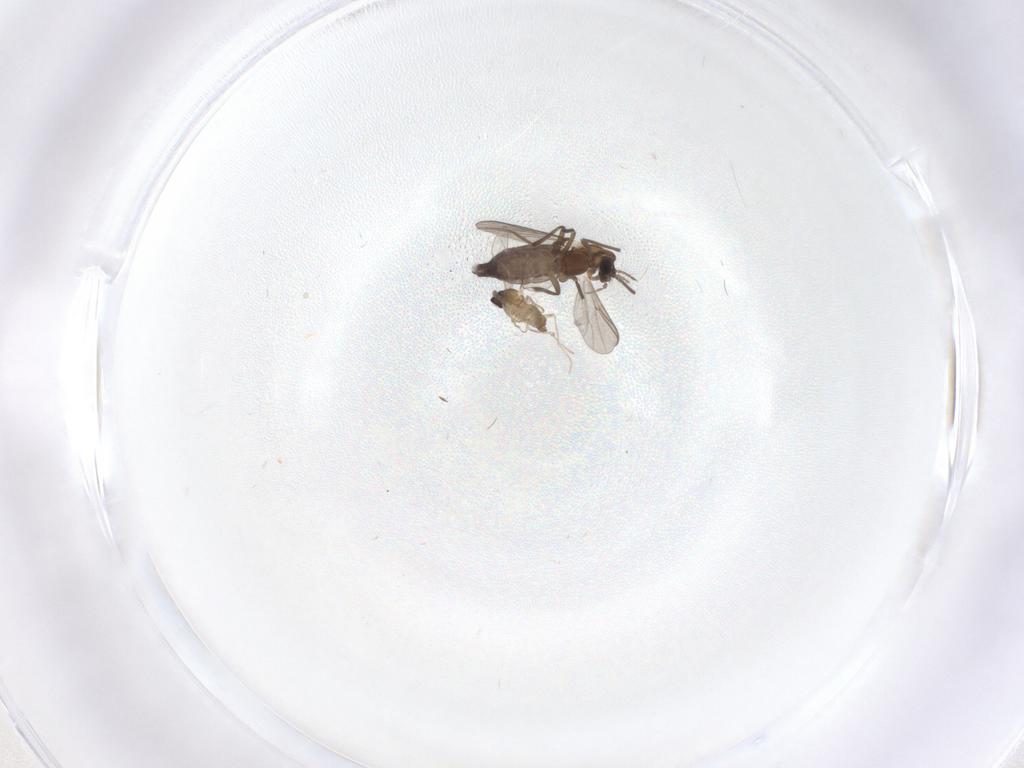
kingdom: Animalia
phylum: Arthropoda
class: Insecta
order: Diptera
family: Chironomidae
